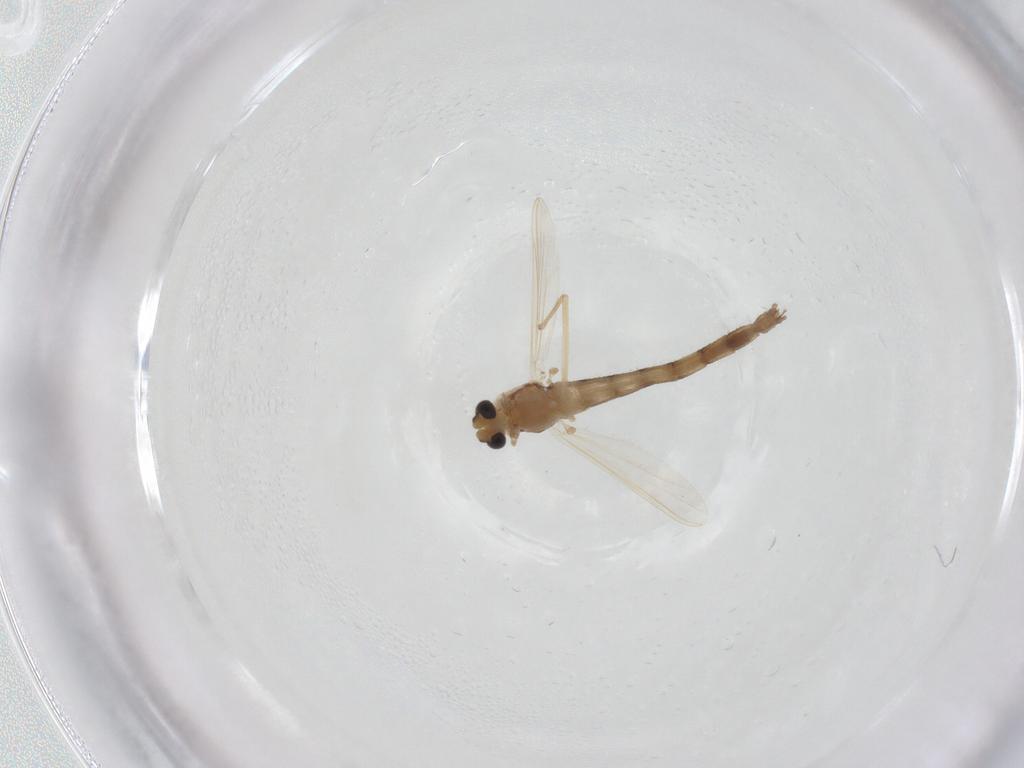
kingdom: Animalia
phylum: Arthropoda
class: Insecta
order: Diptera
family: Chironomidae
